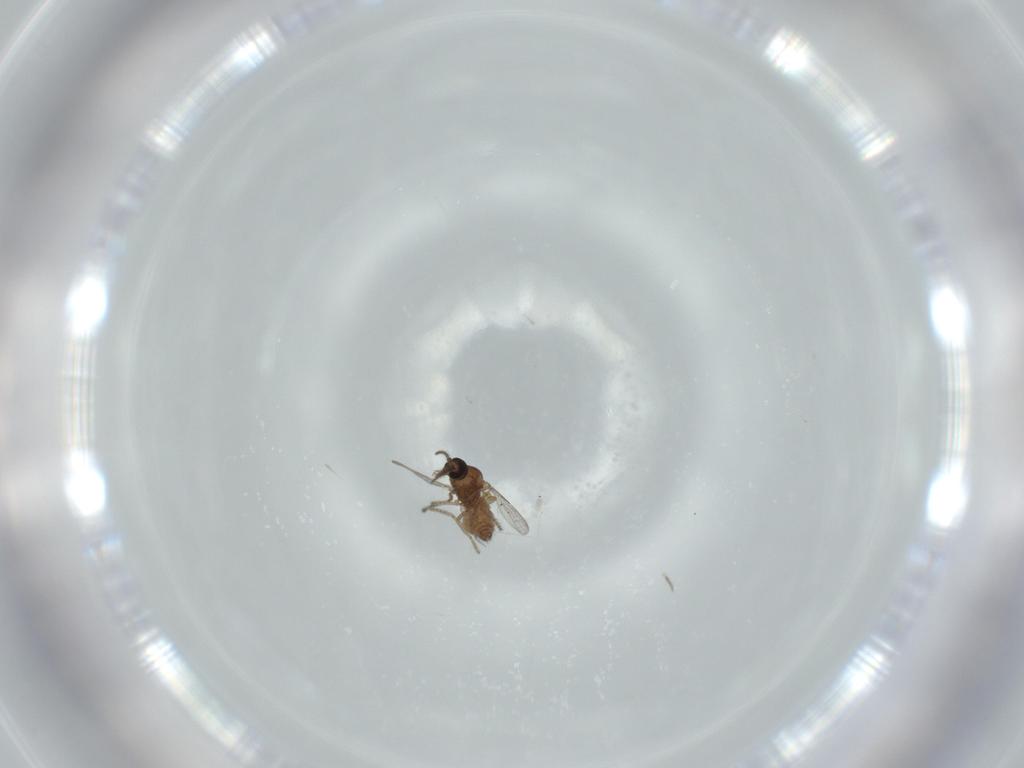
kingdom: Animalia
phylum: Arthropoda
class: Insecta
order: Diptera
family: Ceratopogonidae
